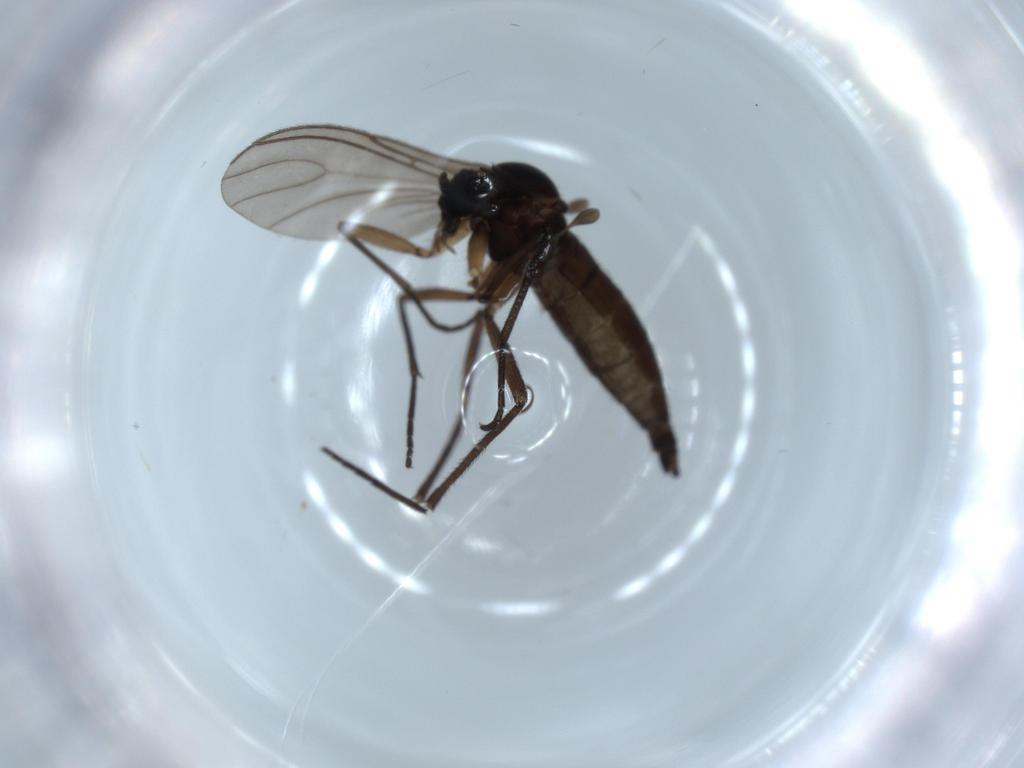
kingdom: Animalia
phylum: Arthropoda
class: Insecta
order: Diptera
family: Sciaridae
